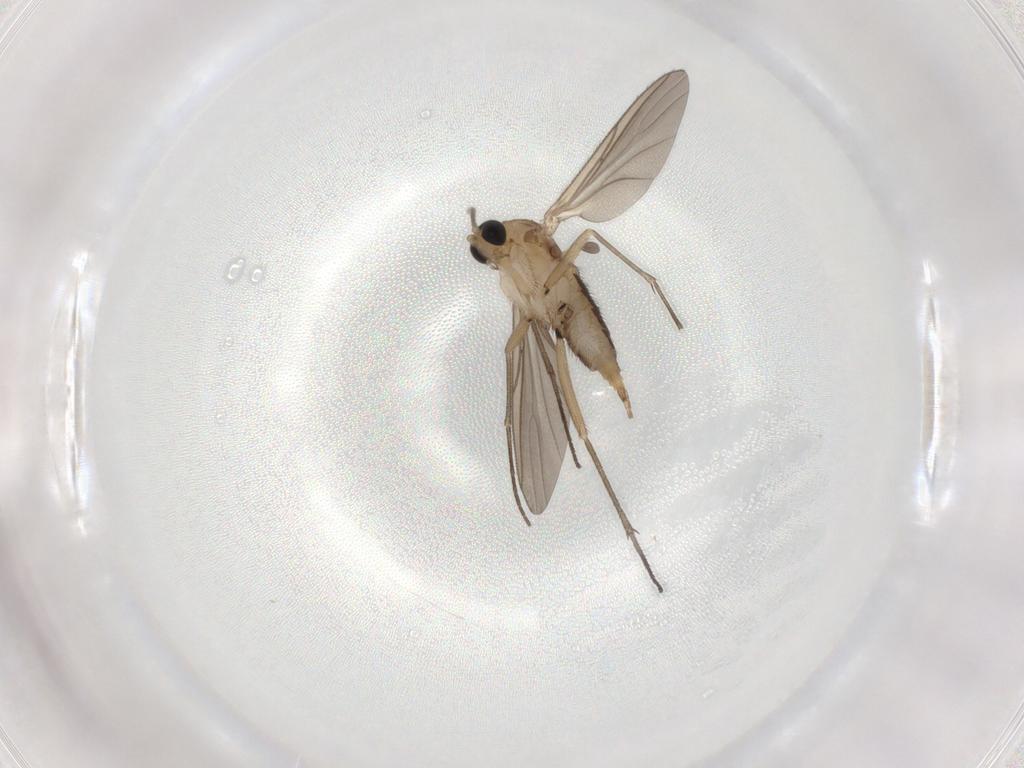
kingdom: Animalia
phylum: Arthropoda
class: Insecta
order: Diptera
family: Sciaridae
